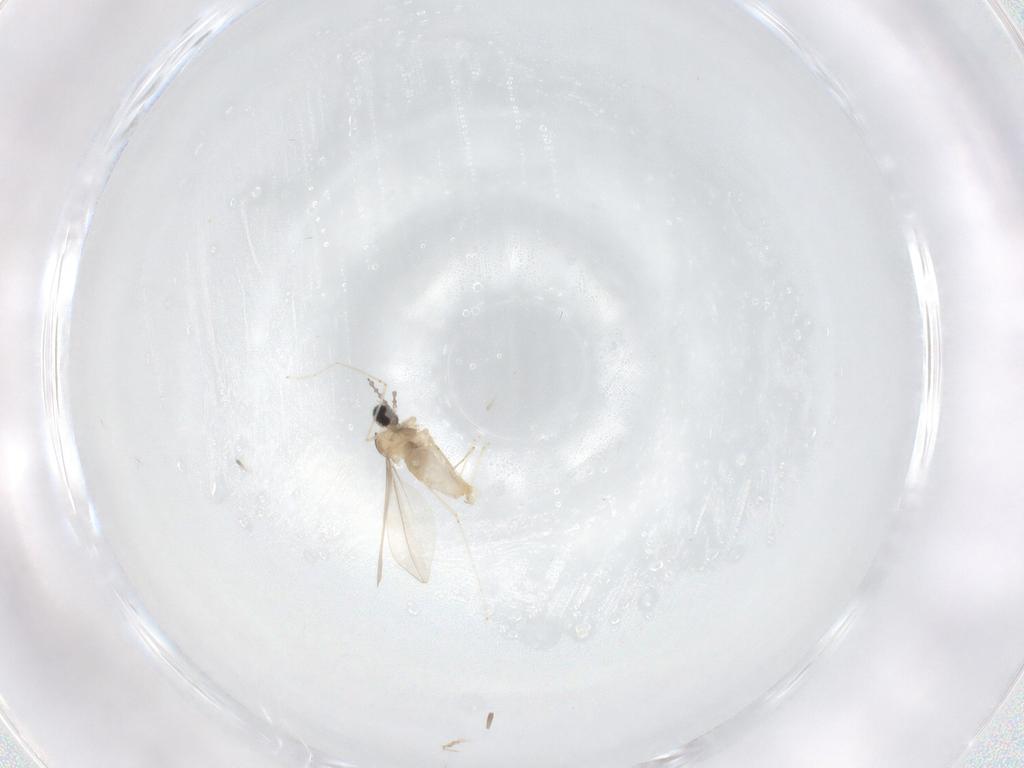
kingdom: Animalia
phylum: Arthropoda
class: Insecta
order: Diptera
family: Cecidomyiidae
